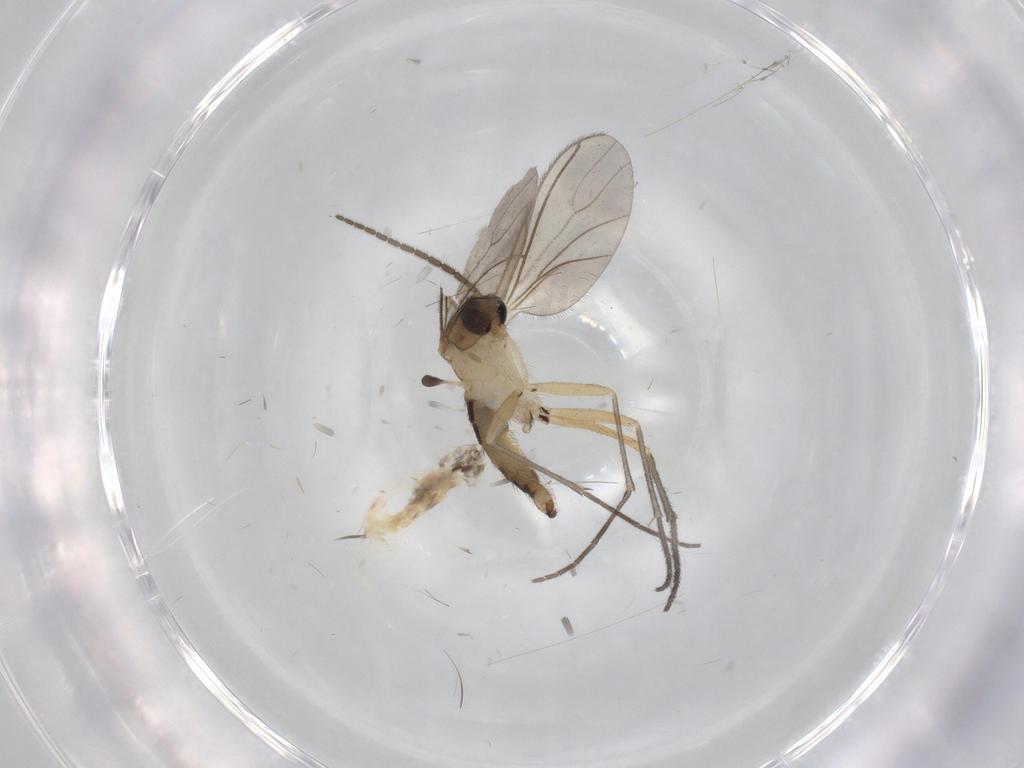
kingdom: Animalia
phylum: Arthropoda
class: Insecta
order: Diptera
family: Sciaridae
